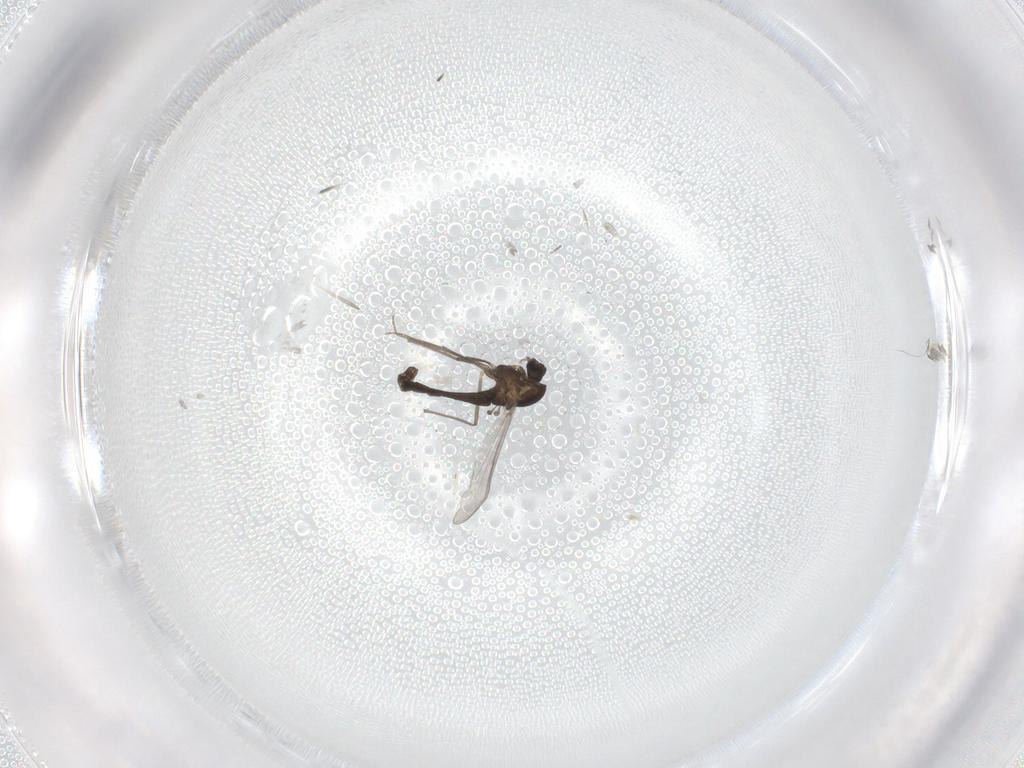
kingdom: Animalia
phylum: Arthropoda
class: Insecta
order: Diptera
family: Chironomidae
